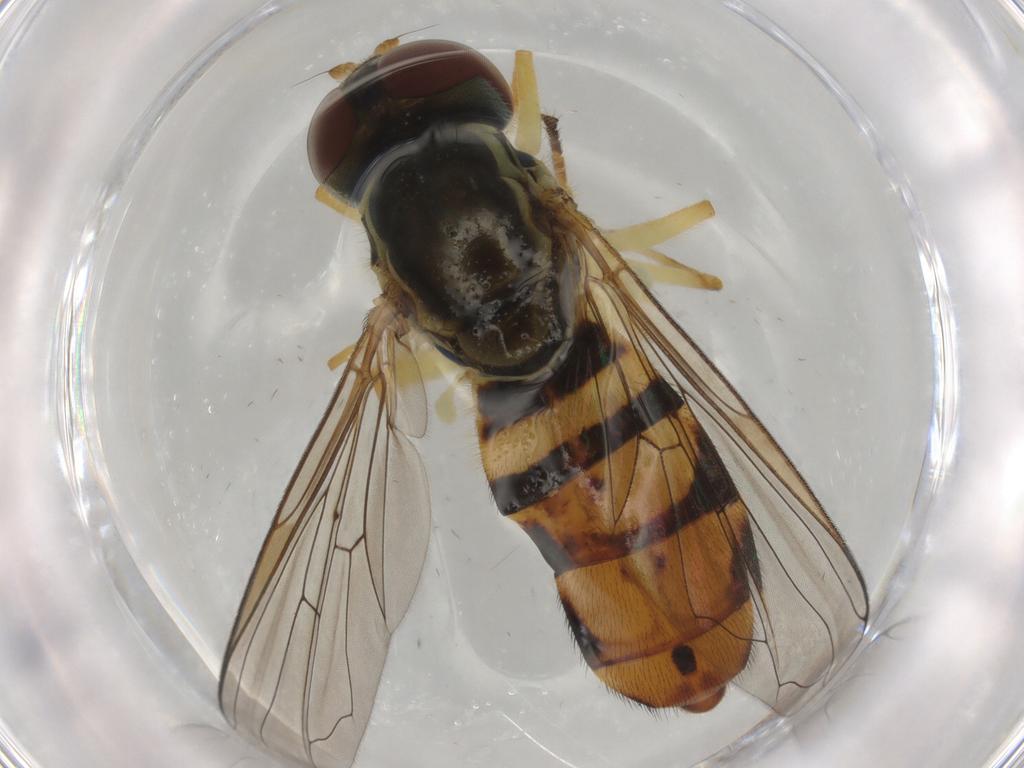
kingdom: Animalia
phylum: Arthropoda
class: Insecta
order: Diptera
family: Syrphidae
